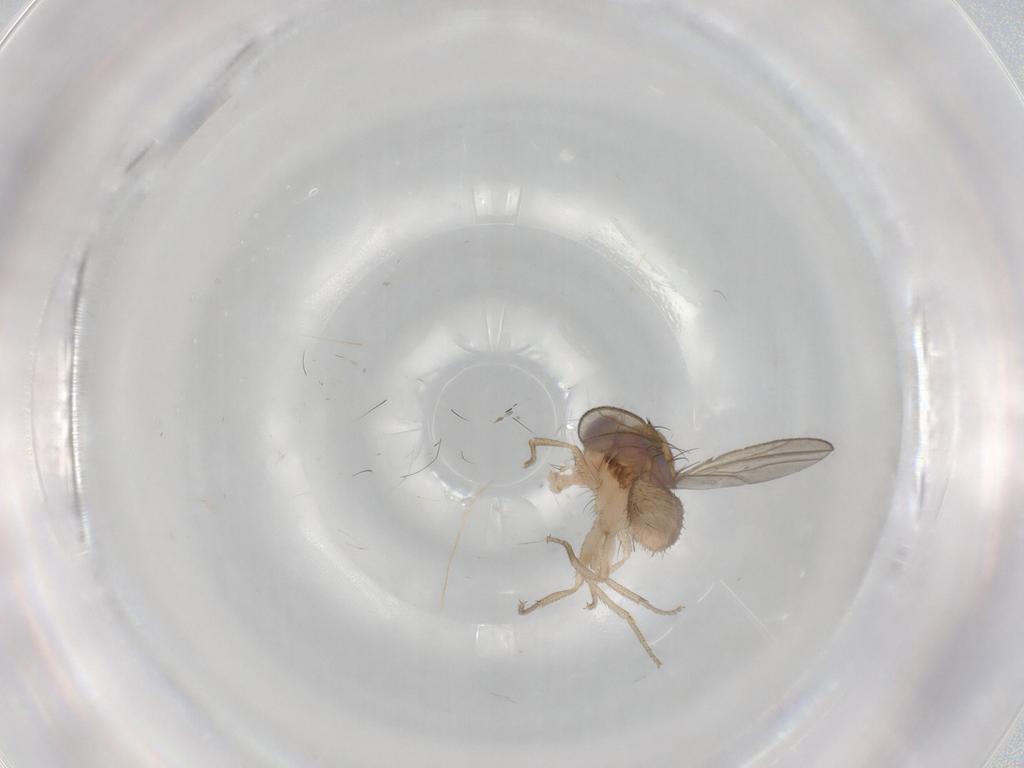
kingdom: Animalia
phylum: Arthropoda
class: Insecta
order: Diptera
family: Drosophilidae
